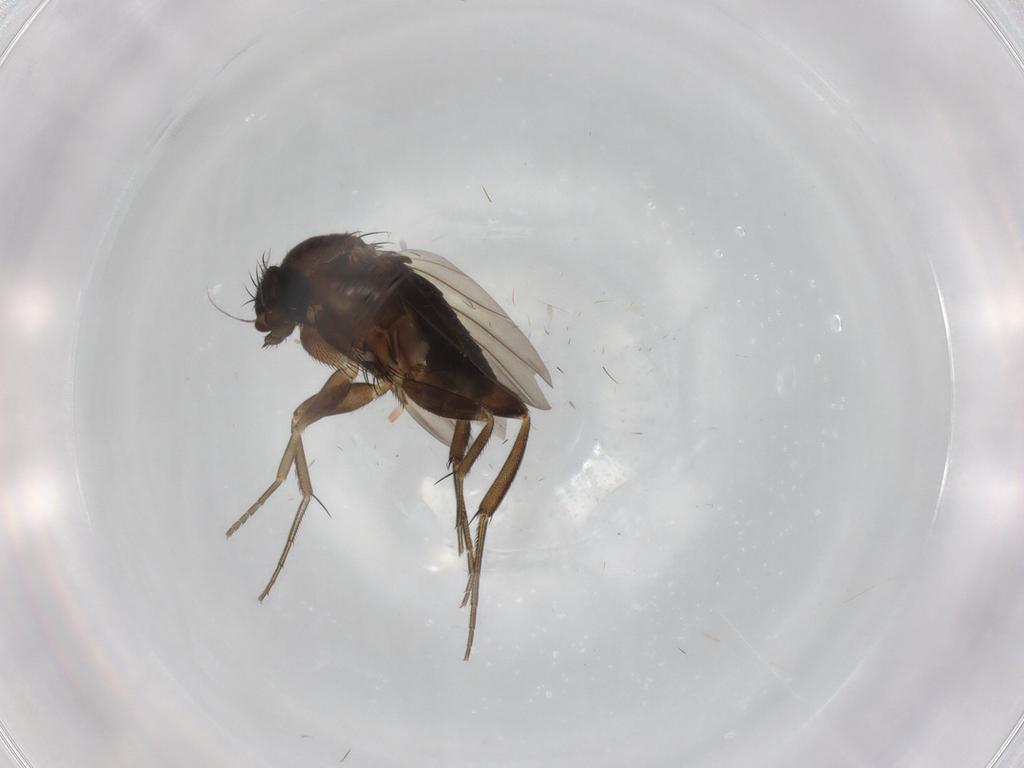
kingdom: Animalia
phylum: Arthropoda
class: Insecta
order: Diptera
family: Phoridae
